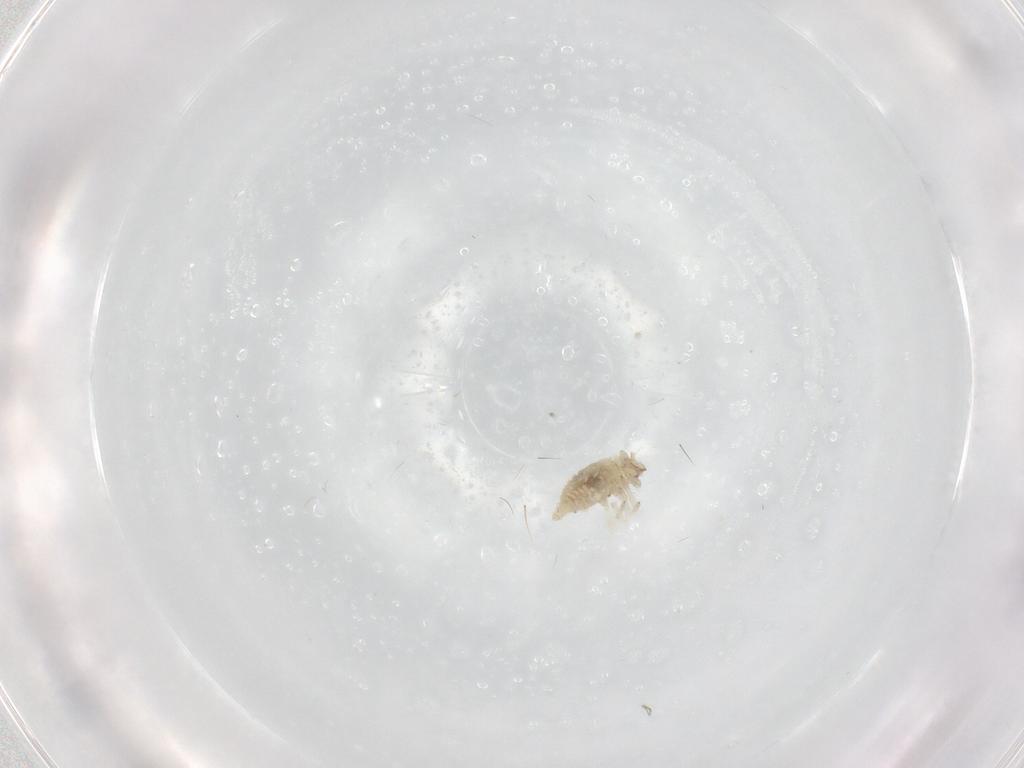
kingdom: Animalia
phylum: Arthropoda
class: Insecta
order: Neuroptera
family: Coniopterygidae
